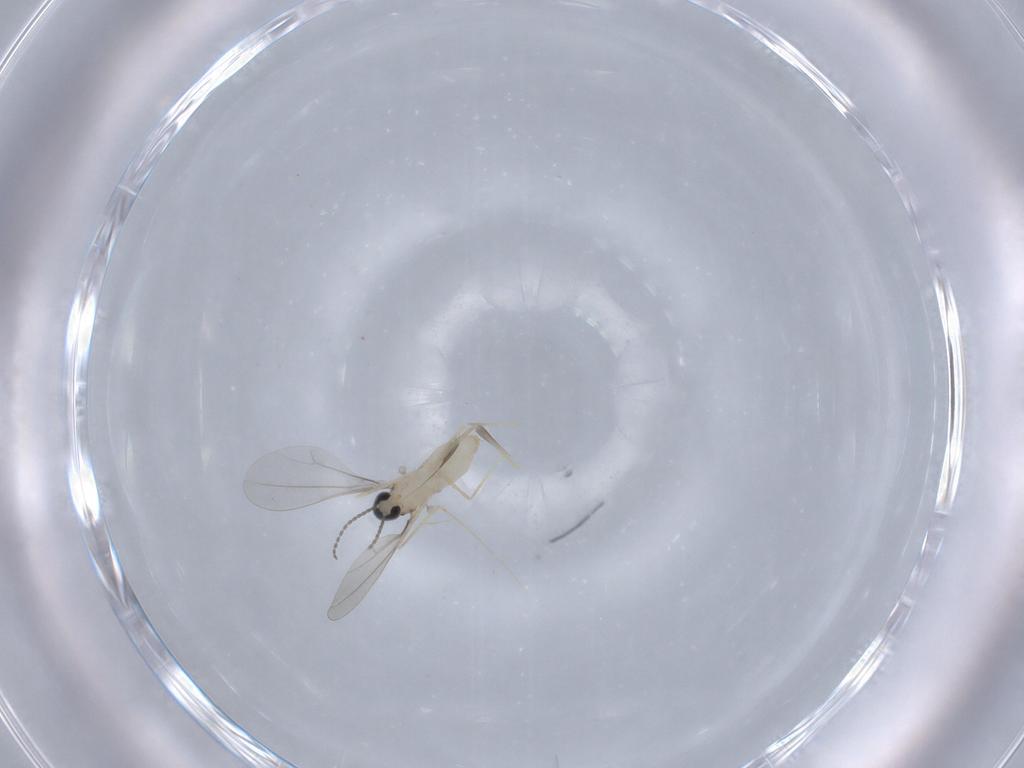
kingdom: Animalia
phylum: Arthropoda
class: Insecta
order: Diptera
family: Cecidomyiidae
